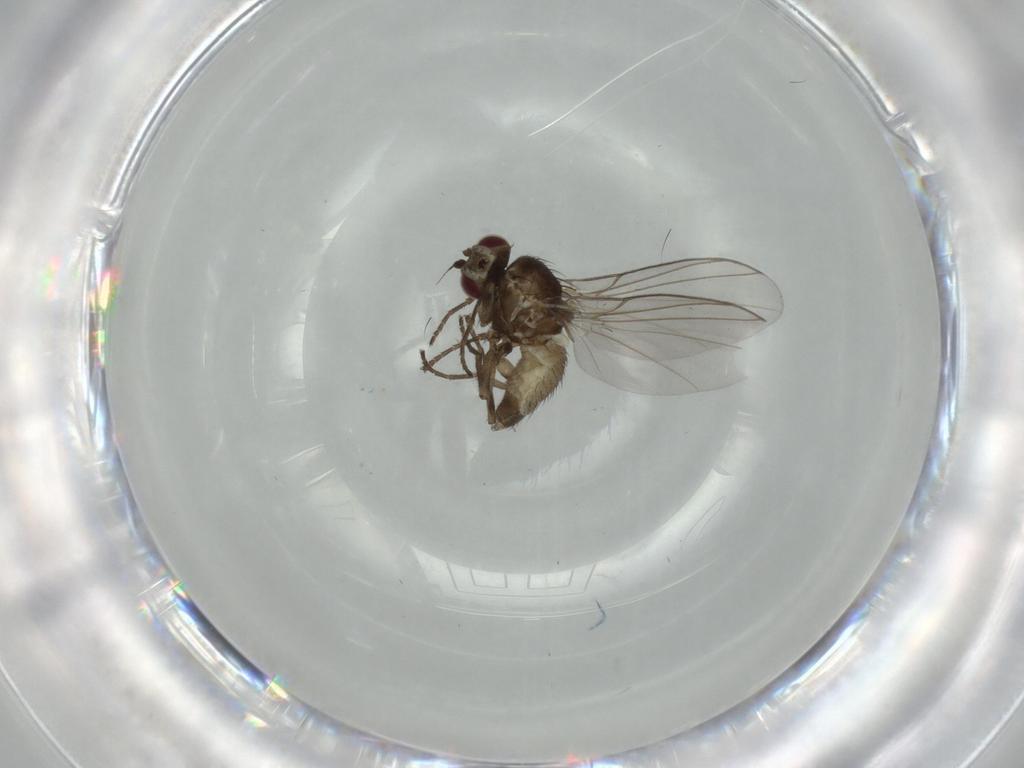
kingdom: Animalia
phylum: Arthropoda
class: Insecta
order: Diptera
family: Agromyzidae
